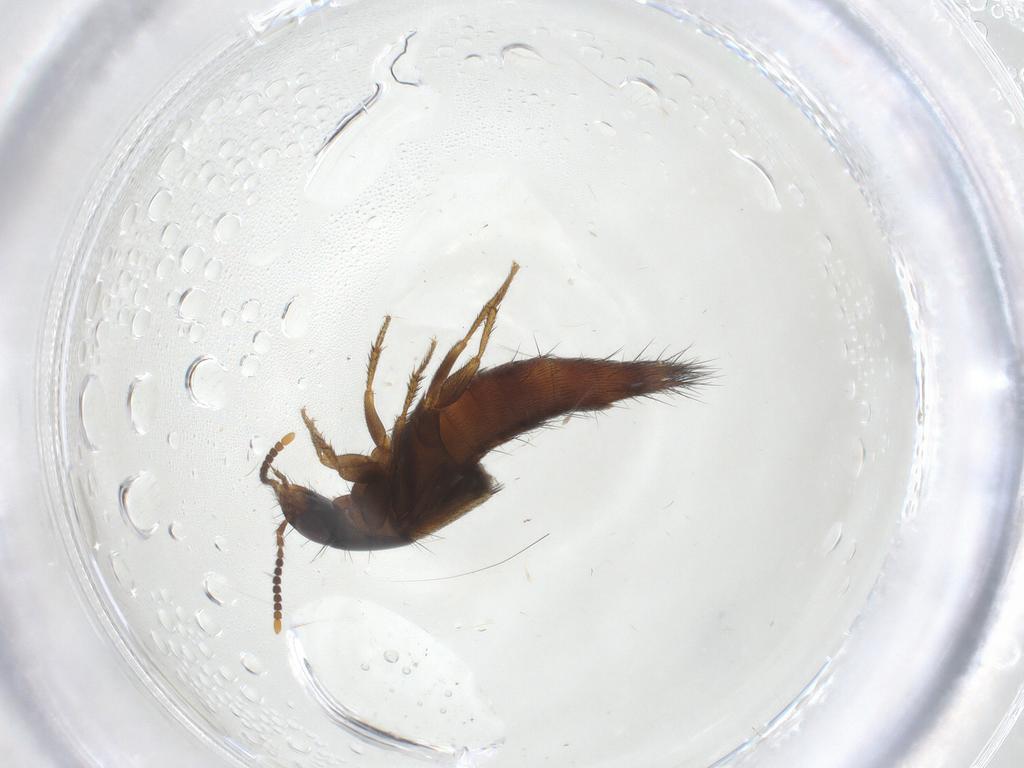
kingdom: Animalia
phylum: Arthropoda
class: Insecta
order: Coleoptera
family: Staphylinidae
